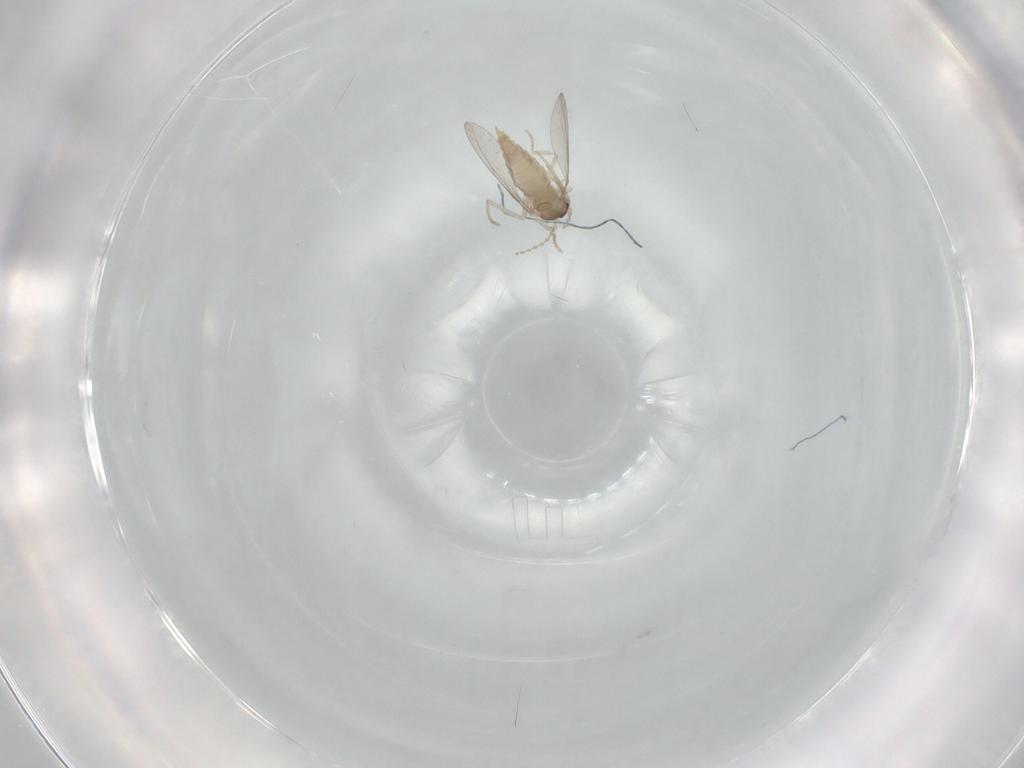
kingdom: Animalia
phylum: Arthropoda
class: Insecta
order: Diptera
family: Cecidomyiidae
